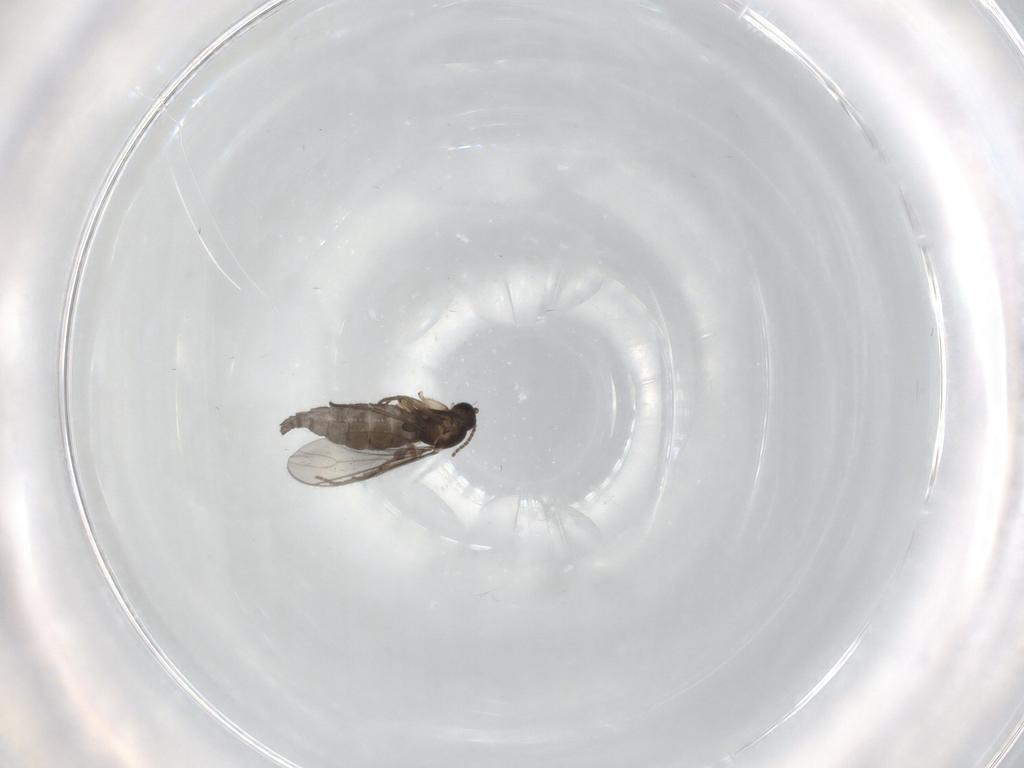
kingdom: Animalia
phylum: Arthropoda
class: Insecta
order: Diptera
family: Sciaridae
